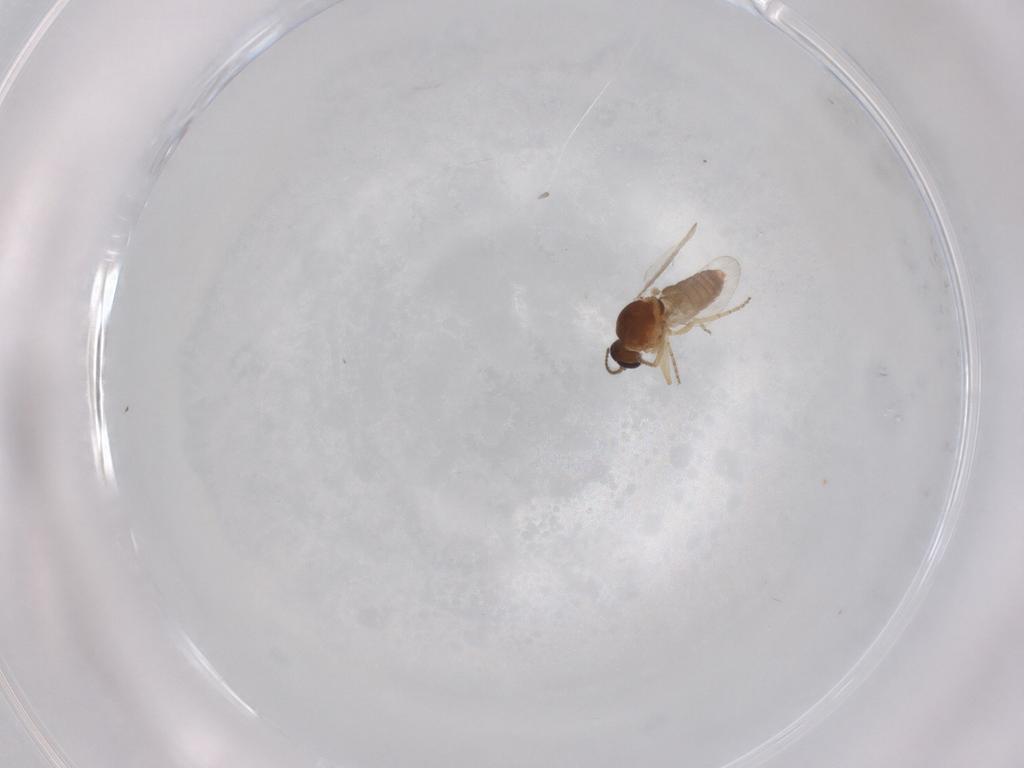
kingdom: Animalia
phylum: Arthropoda
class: Insecta
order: Diptera
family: Ceratopogonidae
